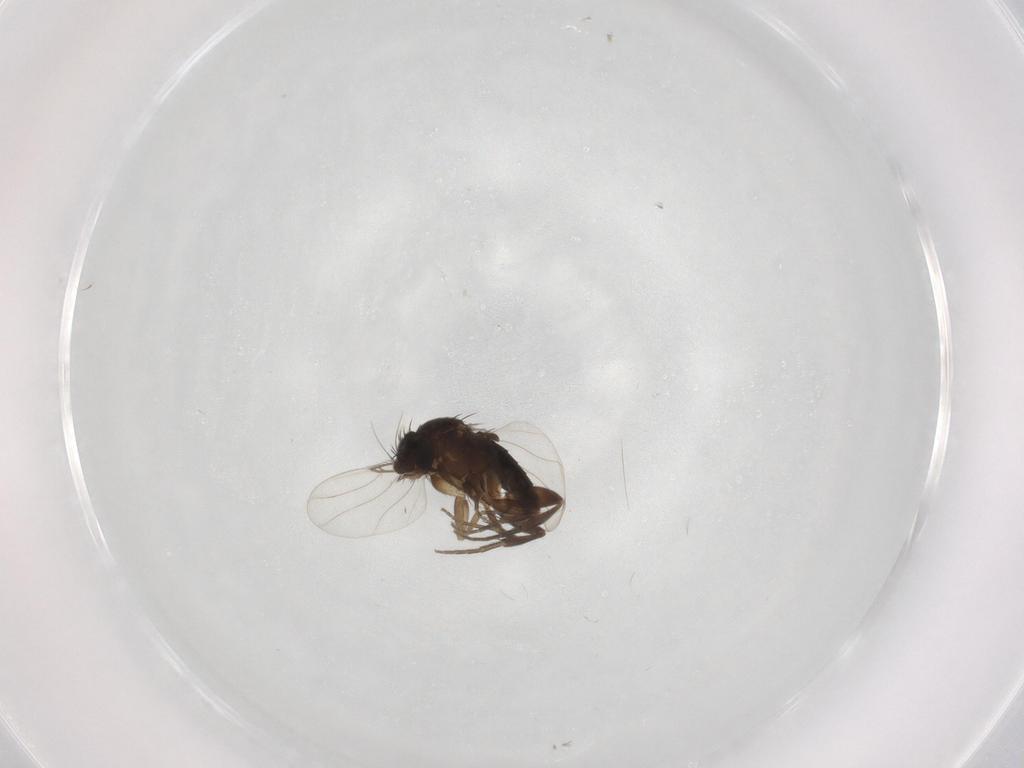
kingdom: Animalia
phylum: Arthropoda
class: Insecta
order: Diptera
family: Phoridae
